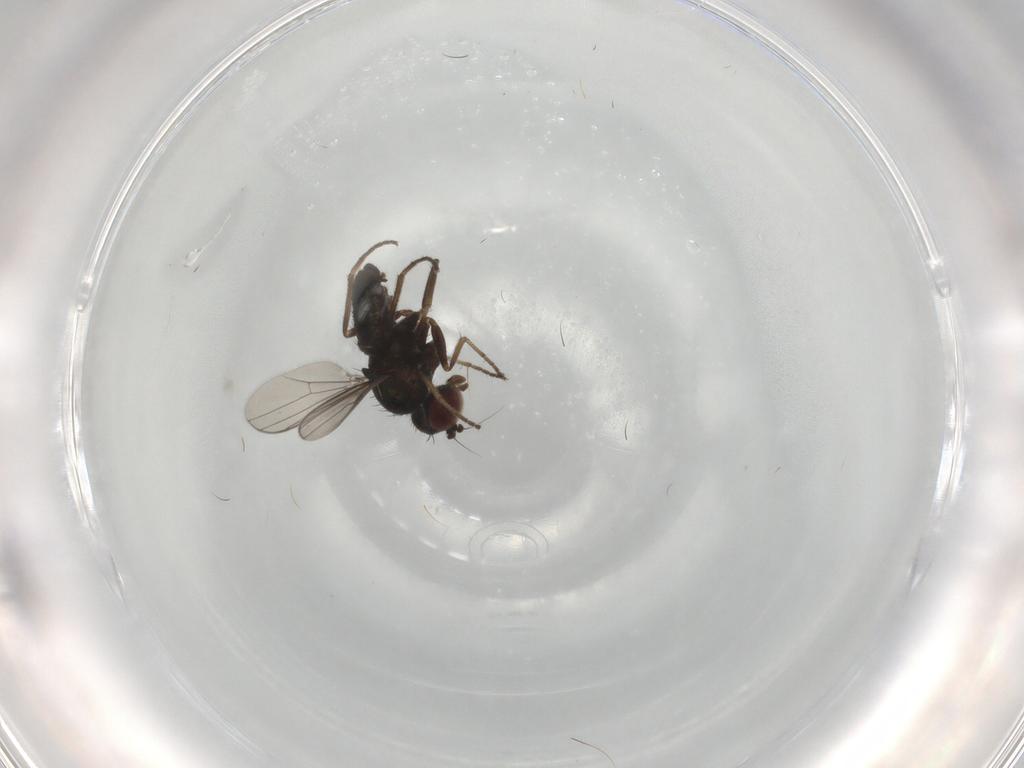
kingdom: Animalia
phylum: Arthropoda
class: Insecta
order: Diptera
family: Dolichopodidae
